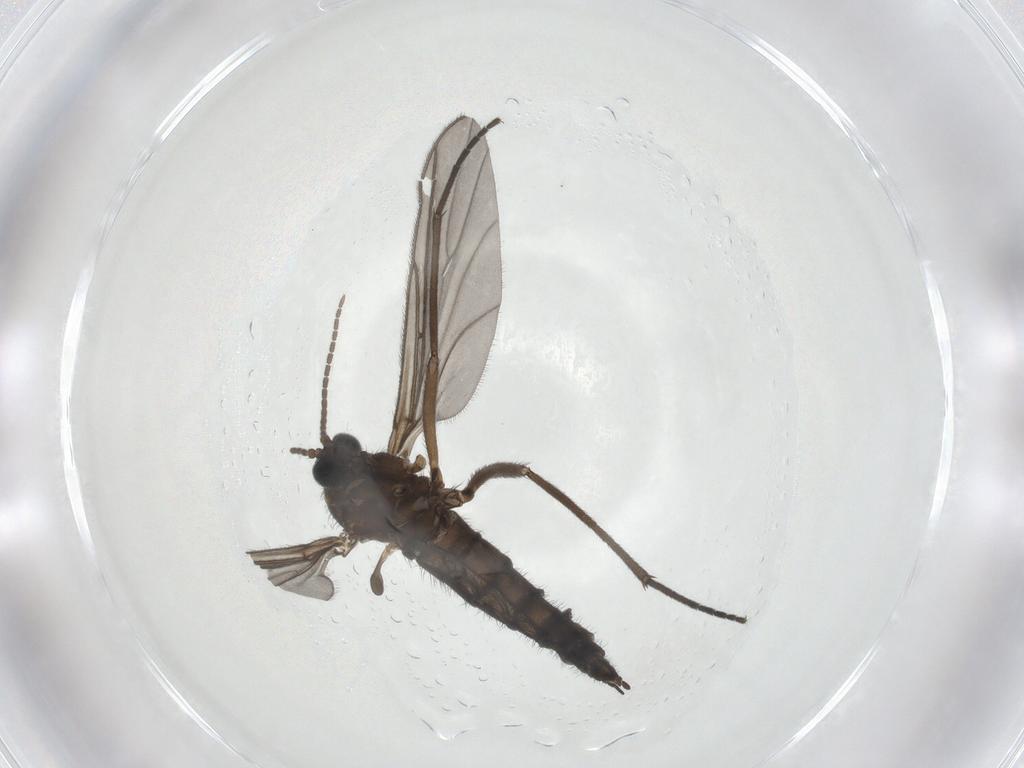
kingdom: Animalia
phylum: Arthropoda
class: Insecta
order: Diptera
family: Sciaridae
